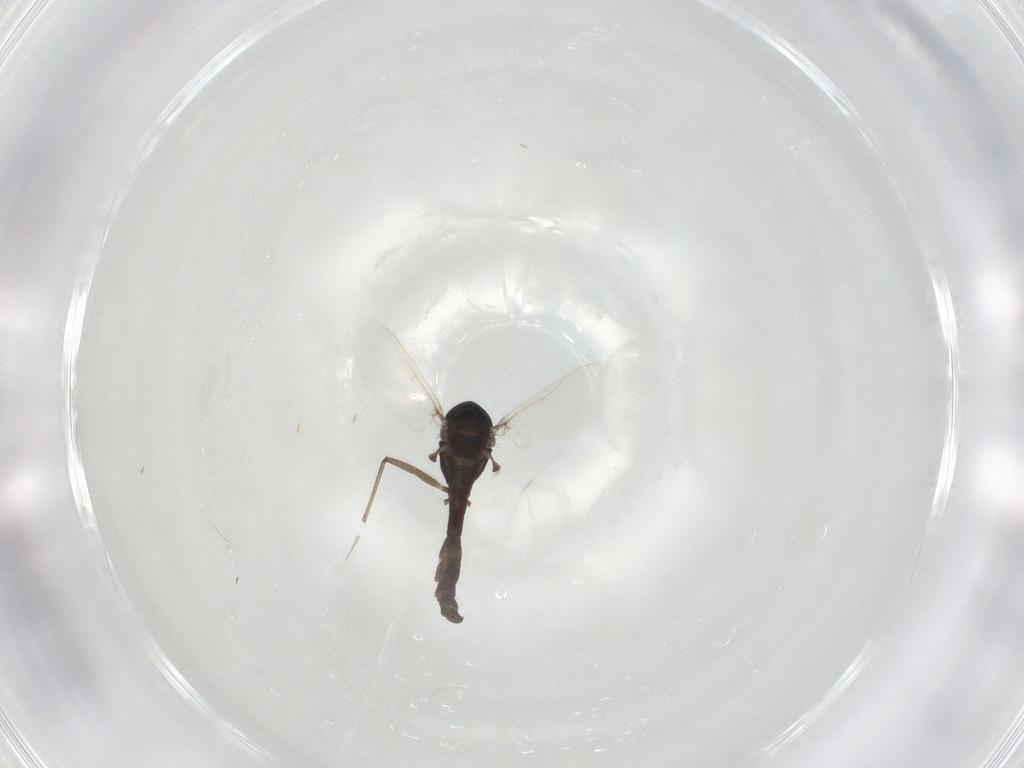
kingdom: Animalia
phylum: Arthropoda
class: Insecta
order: Diptera
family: Chironomidae
